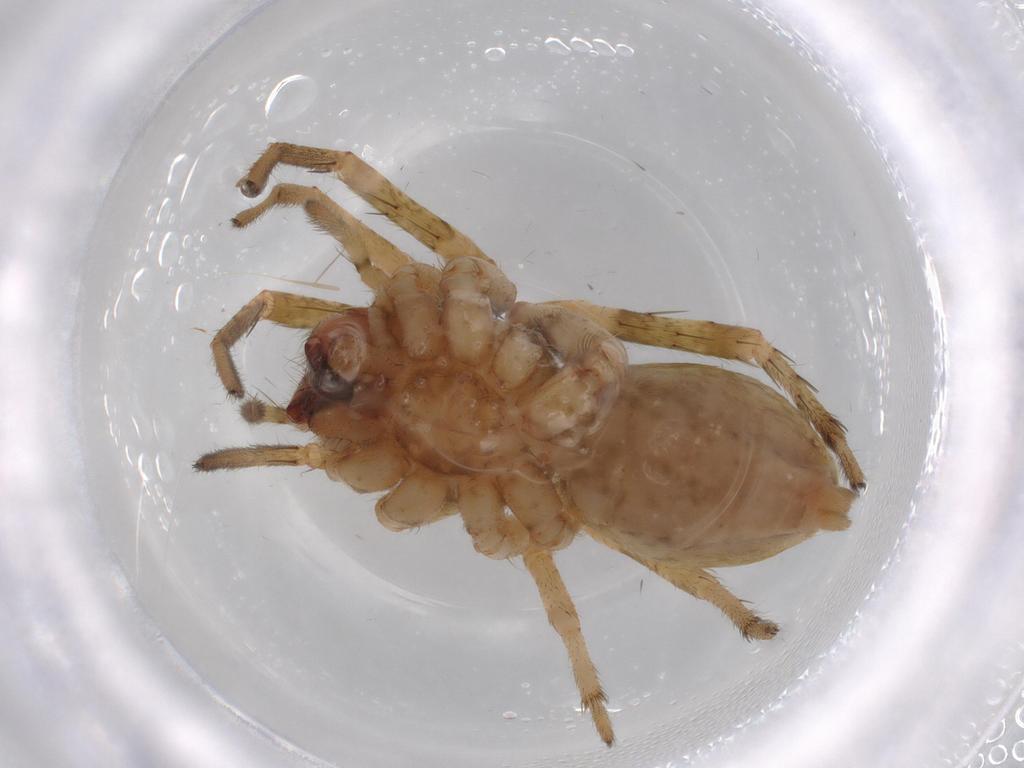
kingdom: Animalia
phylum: Arthropoda
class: Arachnida
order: Araneae
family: Anyphaenidae
